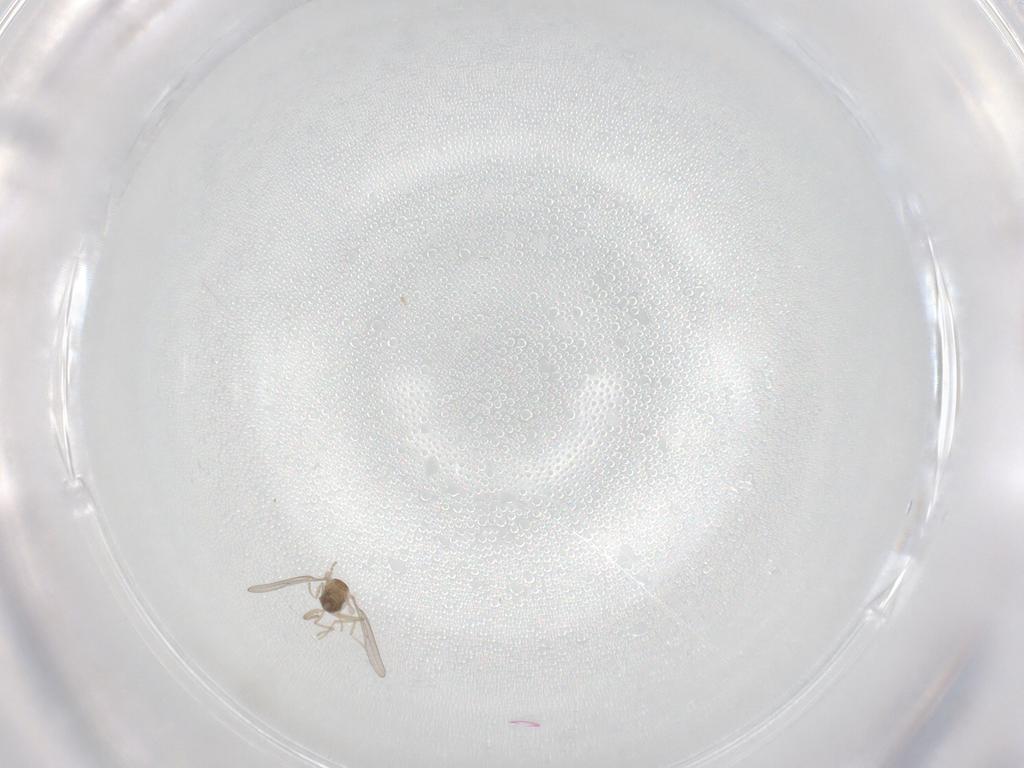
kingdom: Animalia
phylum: Arthropoda
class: Insecta
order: Diptera
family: Cecidomyiidae
